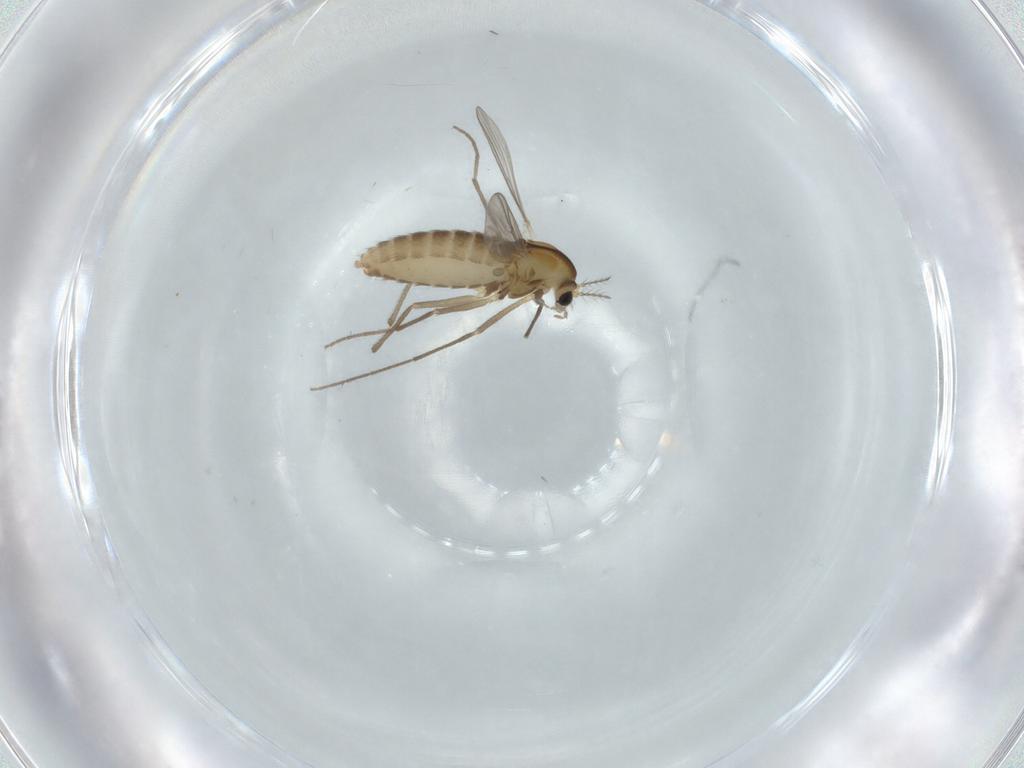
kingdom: Animalia
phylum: Arthropoda
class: Insecta
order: Diptera
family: Chironomidae
